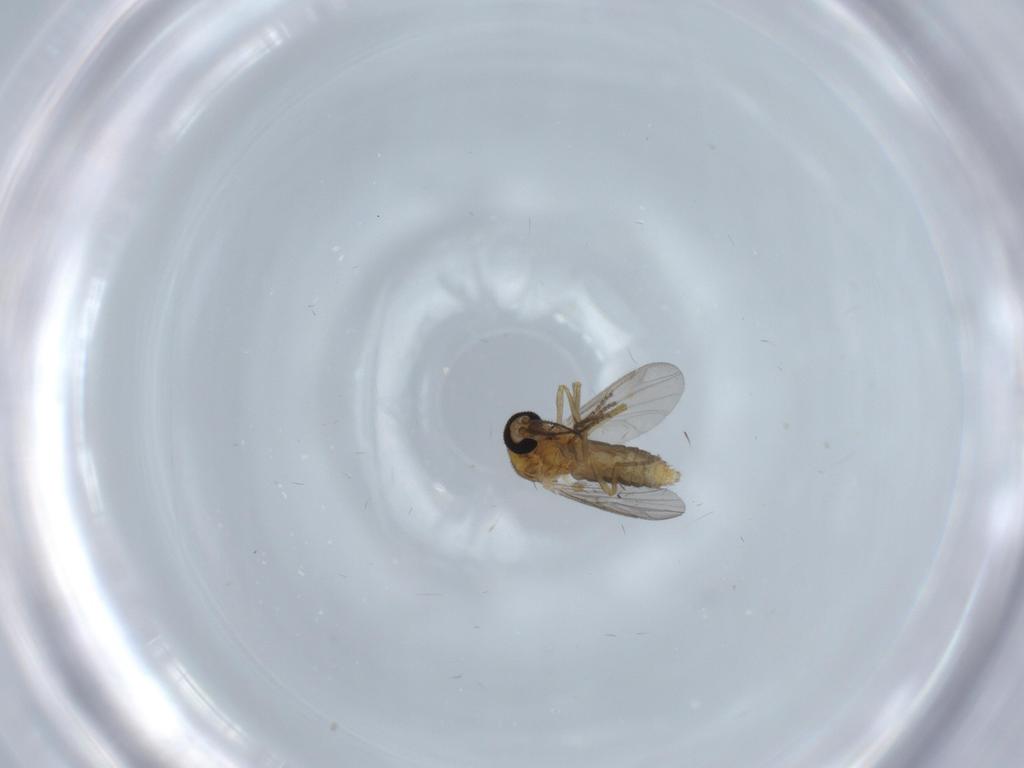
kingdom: Animalia
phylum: Arthropoda
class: Insecta
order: Diptera
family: Ceratopogonidae
